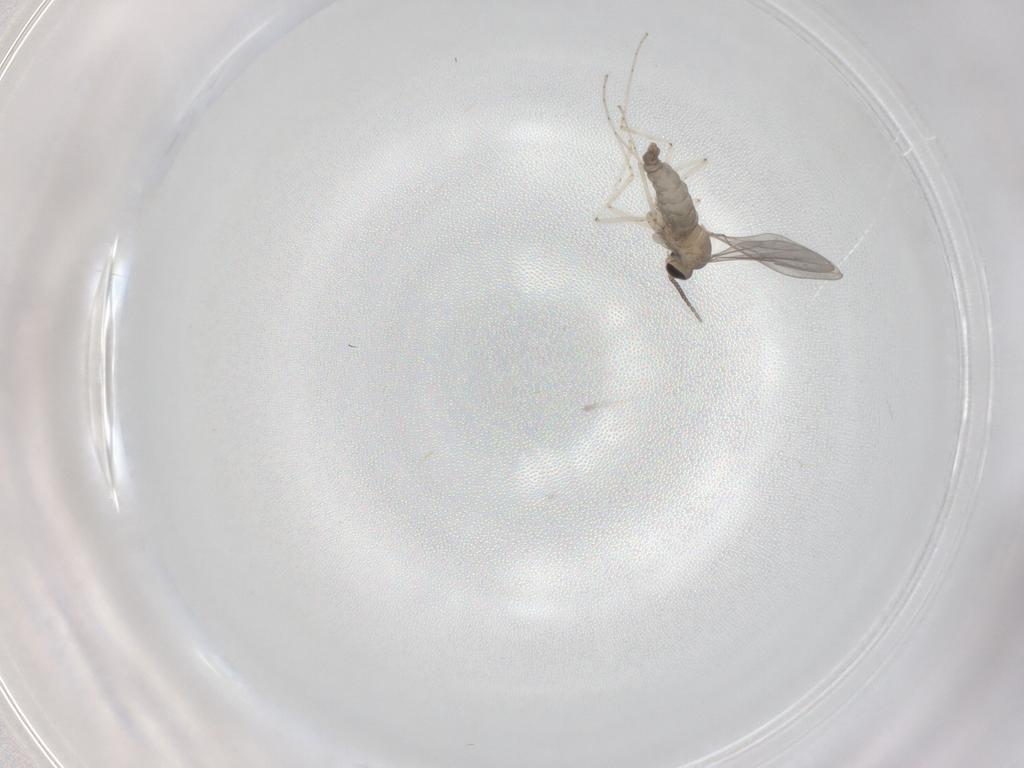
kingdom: Animalia
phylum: Arthropoda
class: Insecta
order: Diptera
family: Cecidomyiidae
